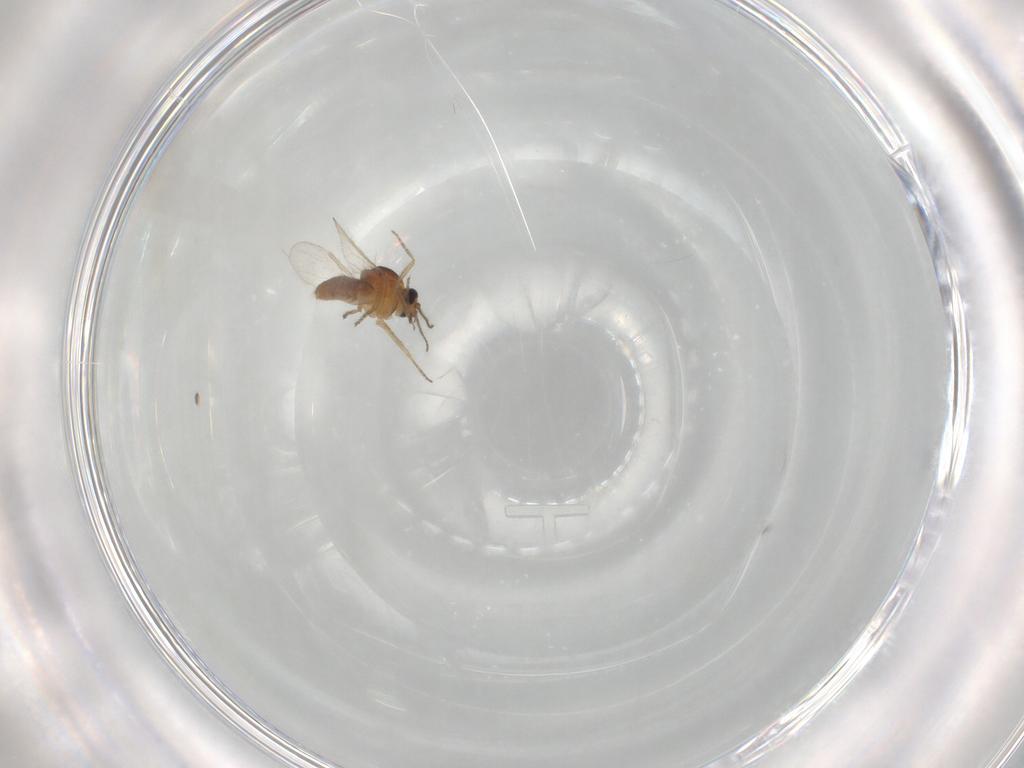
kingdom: Animalia
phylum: Arthropoda
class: Insecta
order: Diptera
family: Ceratopogonidae
